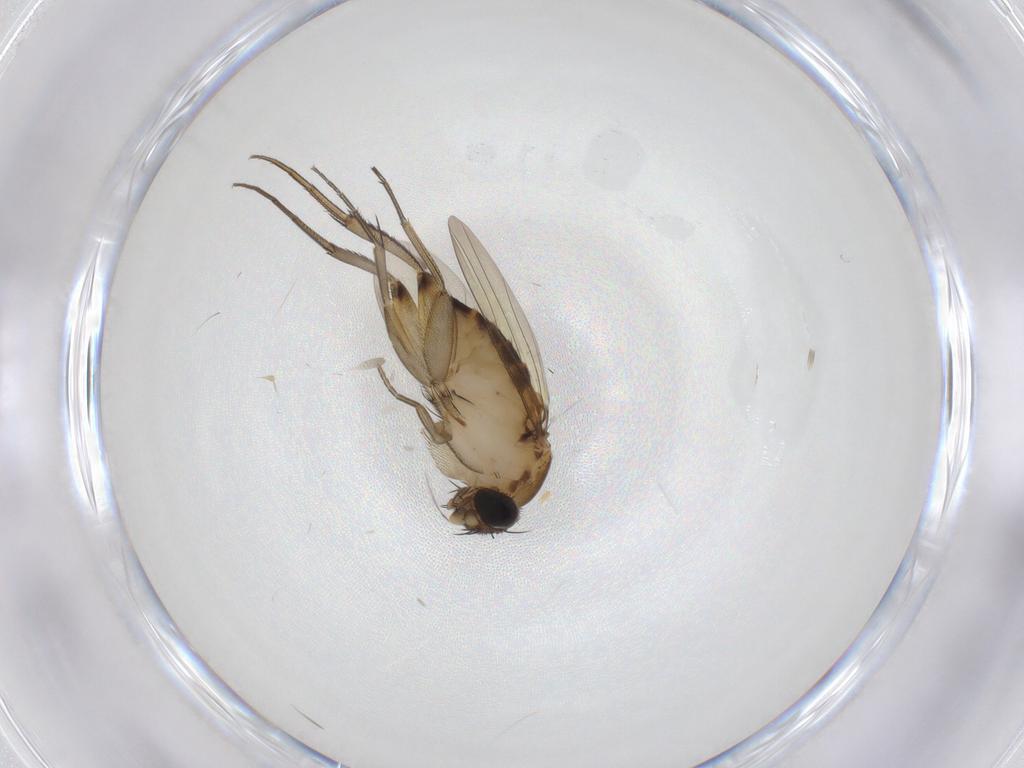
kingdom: Animalia
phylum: Arthropoda
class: Insecta
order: Diptera
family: Phoridae
